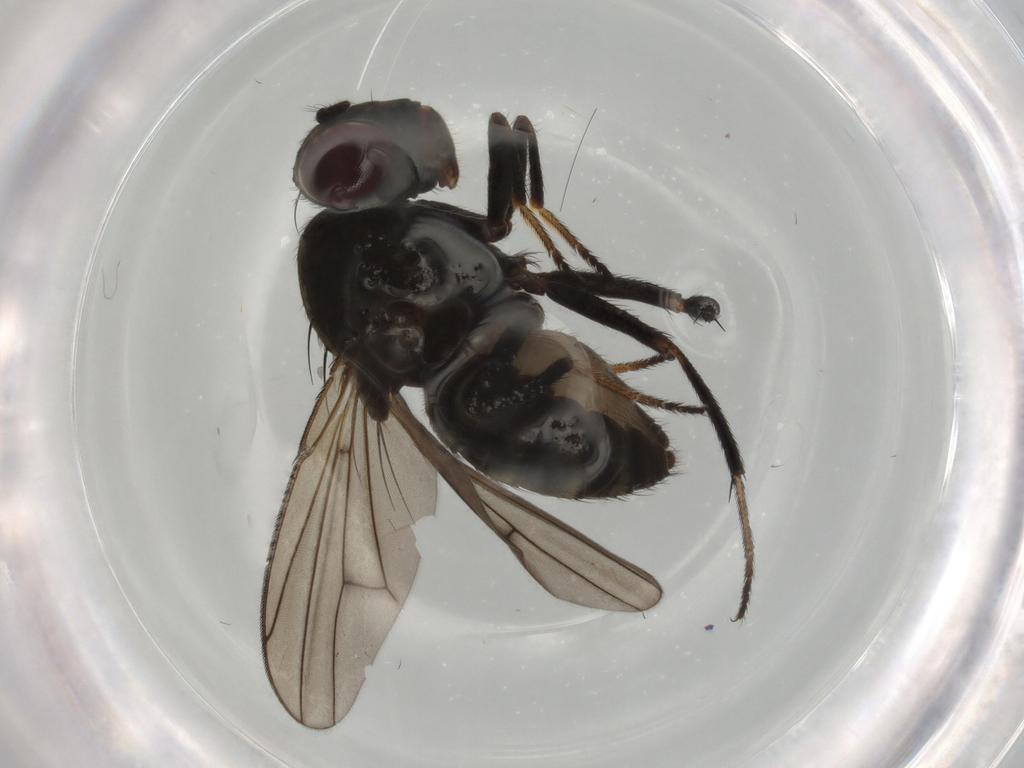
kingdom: Animalia
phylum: Arthropoda
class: Insecta
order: Diptera
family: Ephydridae
